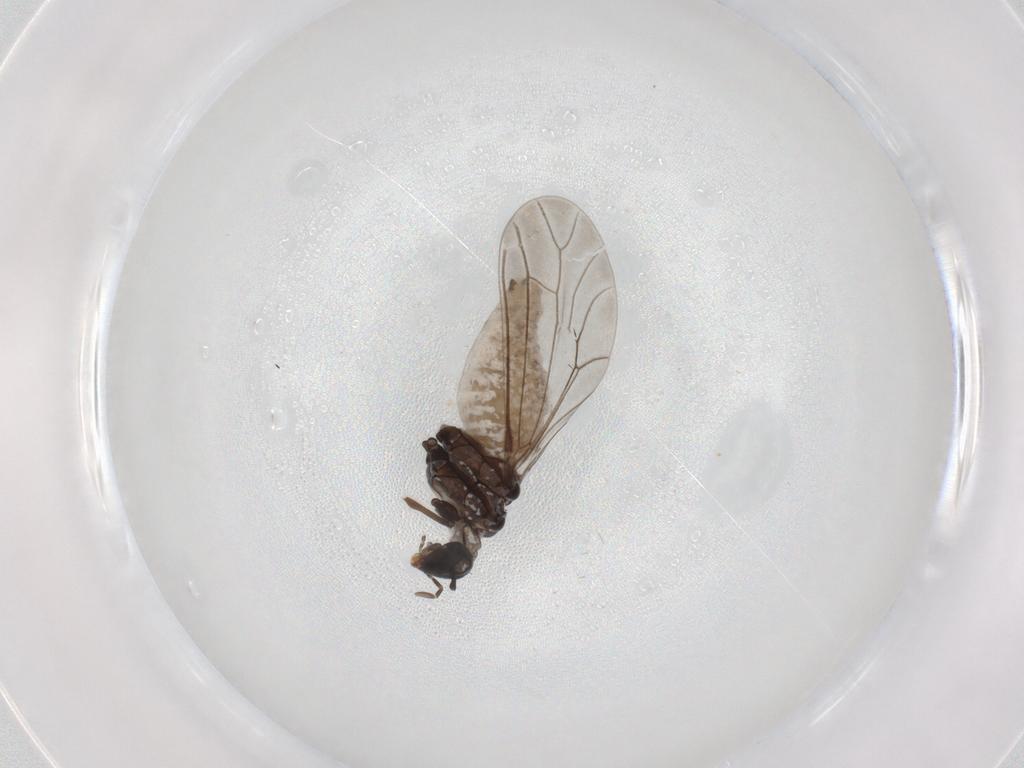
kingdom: Animalia
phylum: Arthropoda
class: Insecta
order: Neuroptera
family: Coniopterygidae
